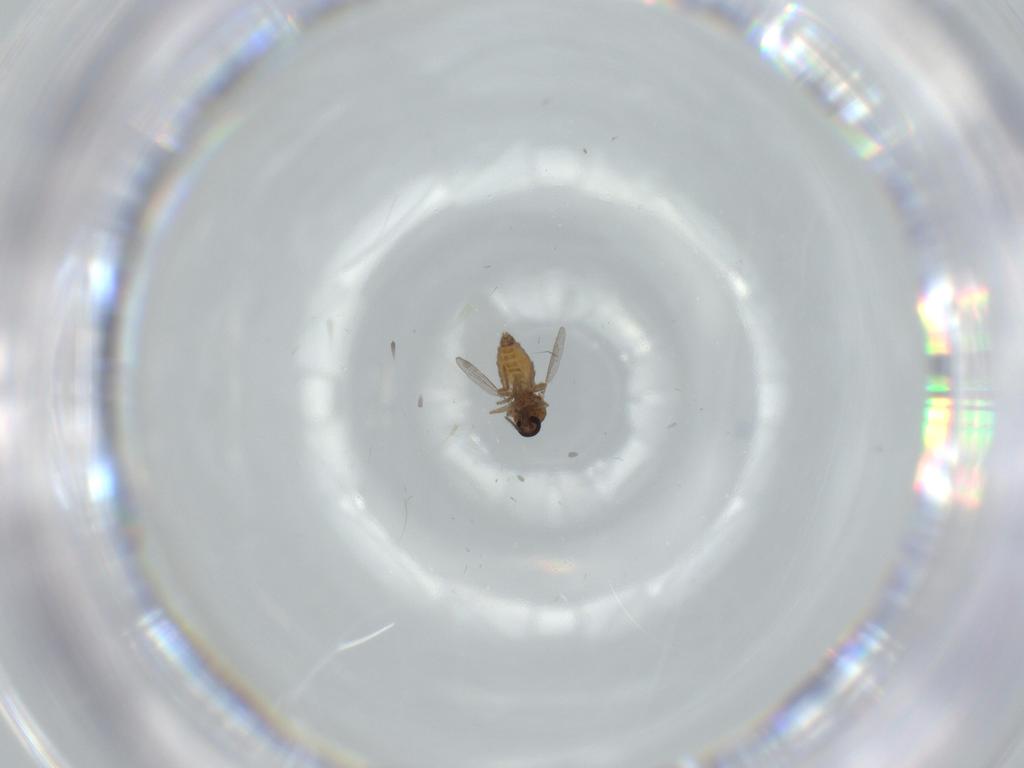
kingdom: Animalia
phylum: Arthropoda
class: Insecta
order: Diptera
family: Ceratopogonidae
